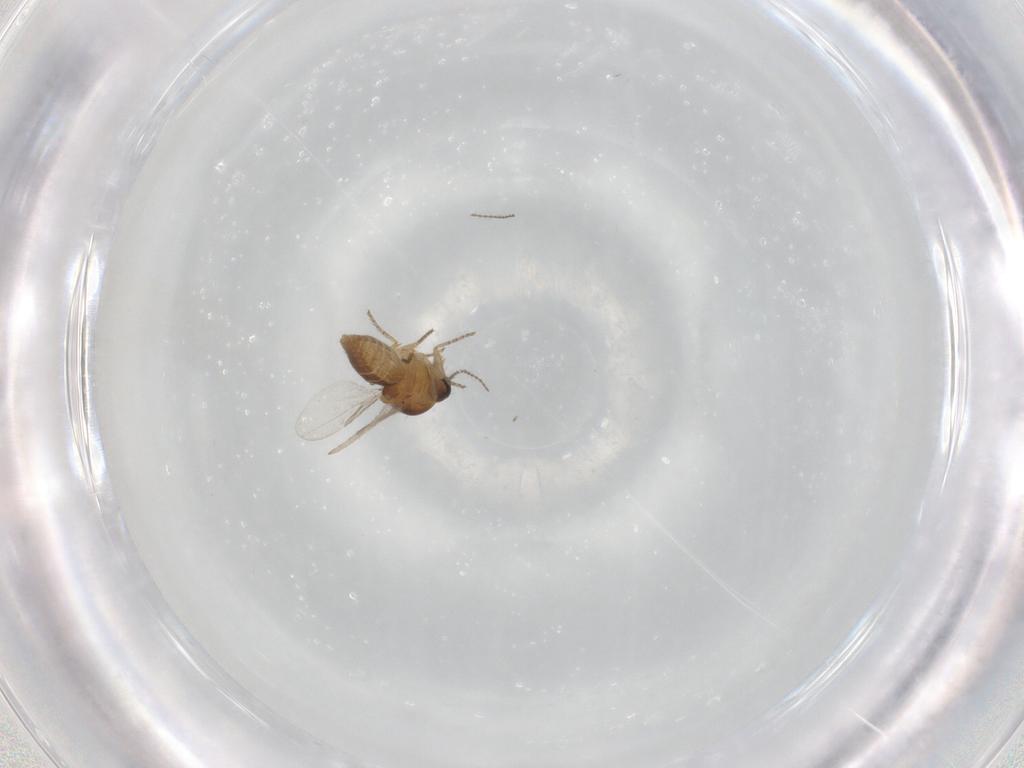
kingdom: Animalia
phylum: Arthropoda
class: Insecta
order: Diptera
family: Ceratopogonidae
